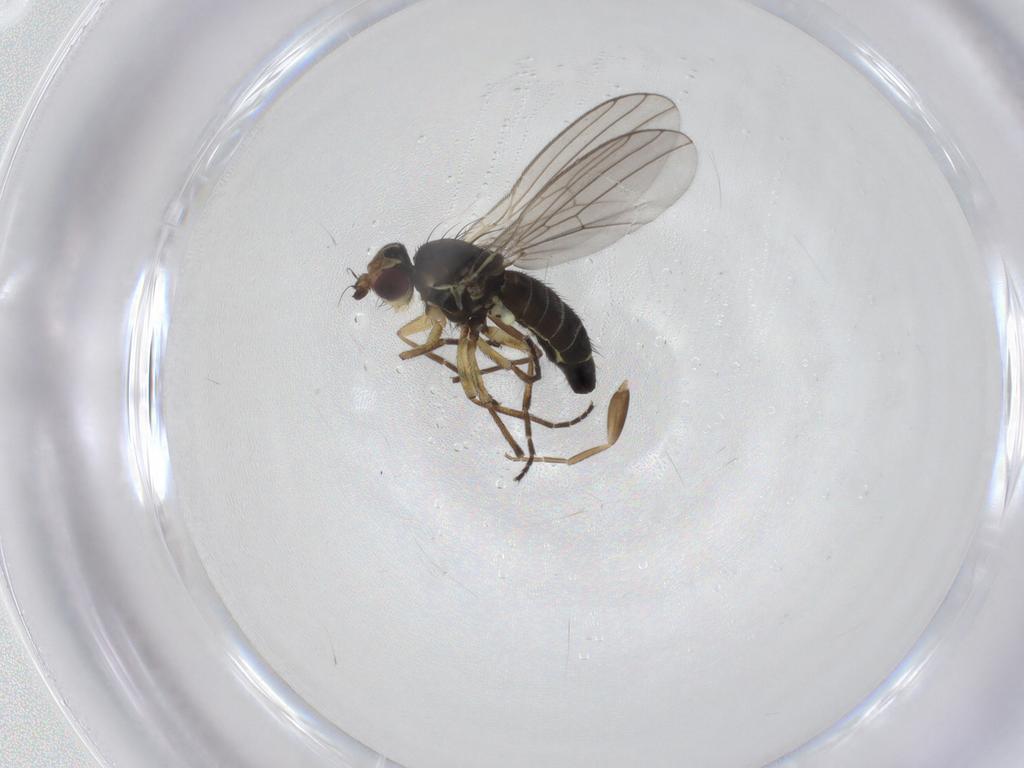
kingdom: Animalia
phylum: Arthropoda
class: Insecta
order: Diptera
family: Agromyzidae
